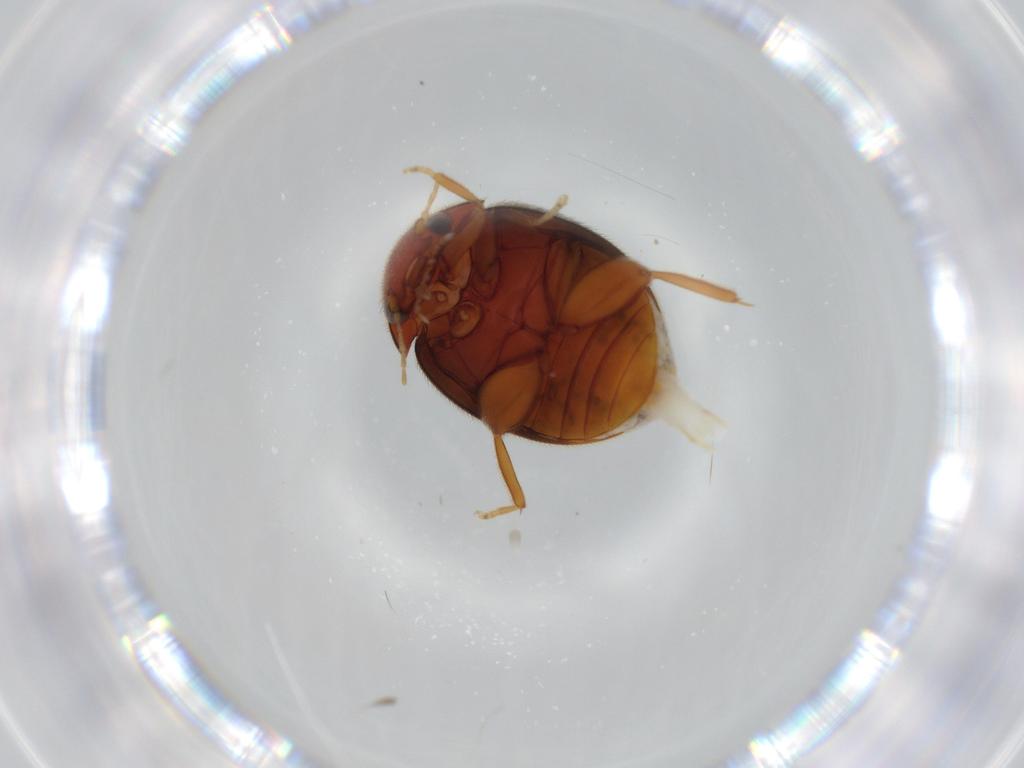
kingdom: Animalia
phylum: Arthropoda
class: Insecta
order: Coleoptera
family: Scirtidae
